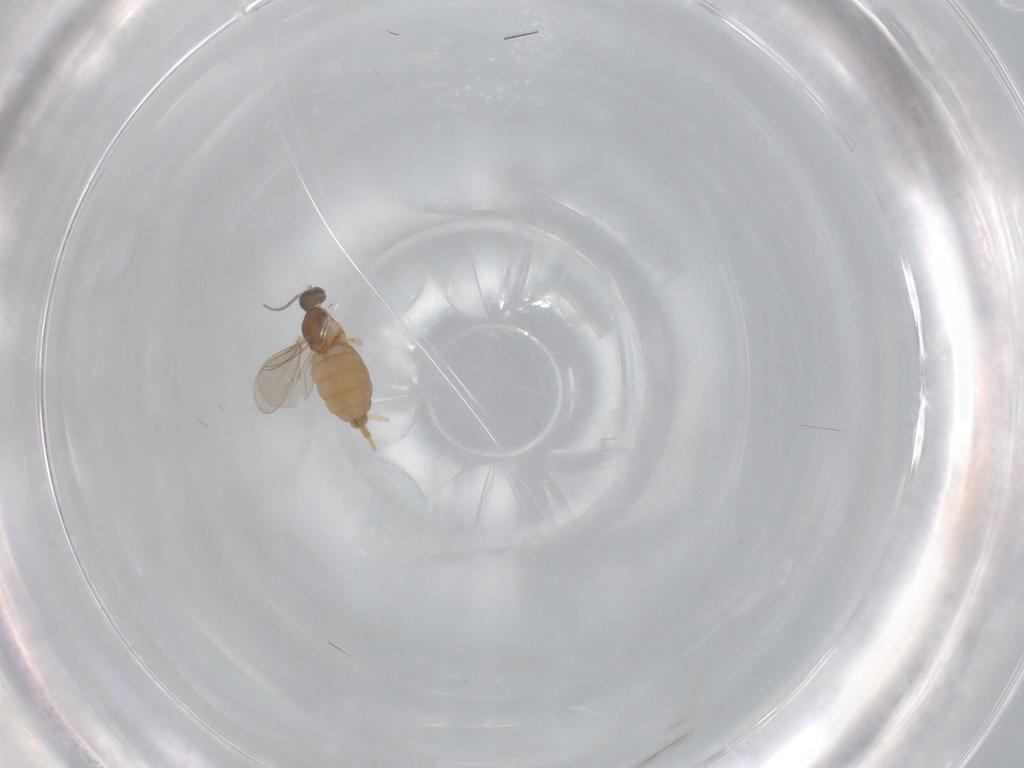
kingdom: Animalia
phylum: Arthropoda
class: Insecta
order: Diptera
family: Cecidomyiidae
